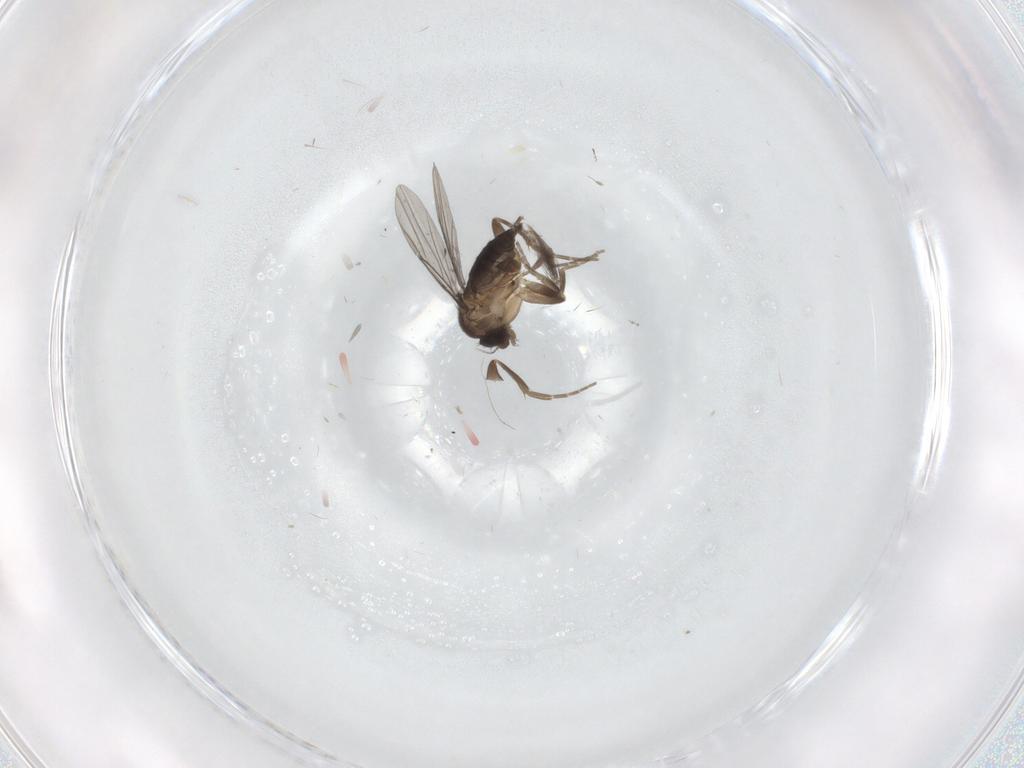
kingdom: Animalia
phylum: Arthropoda
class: Insecta
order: Diptera
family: Phoridae
